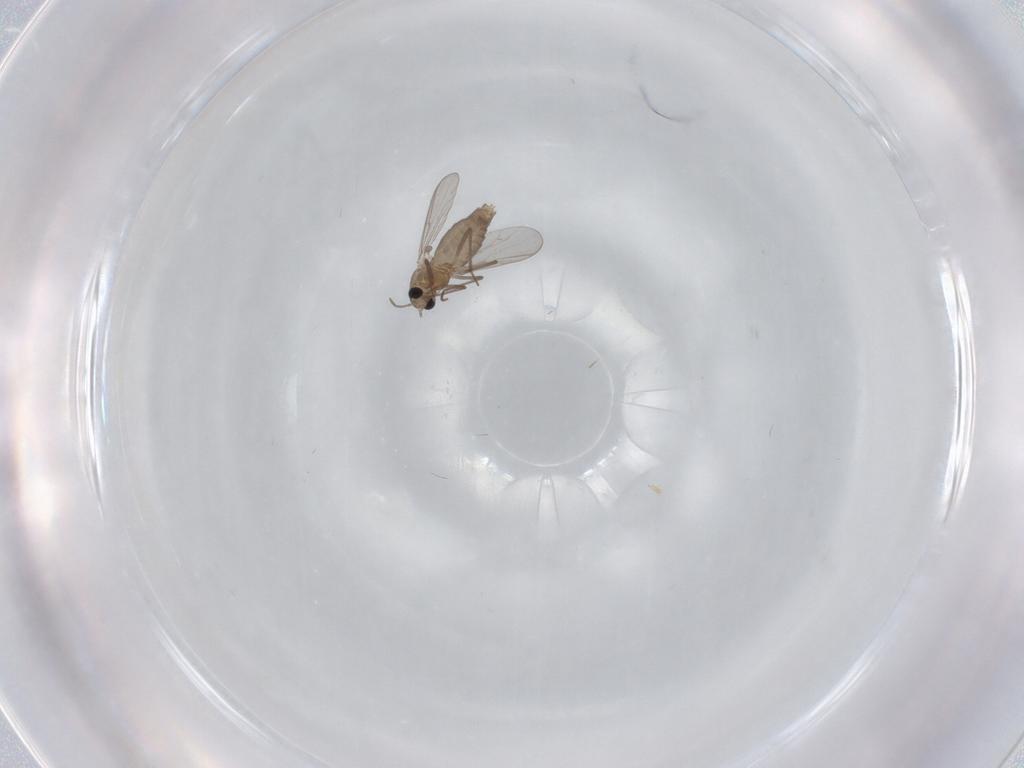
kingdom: Animalia
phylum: Arthropoda
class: Insecta
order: Diptera
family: Chironomidae
